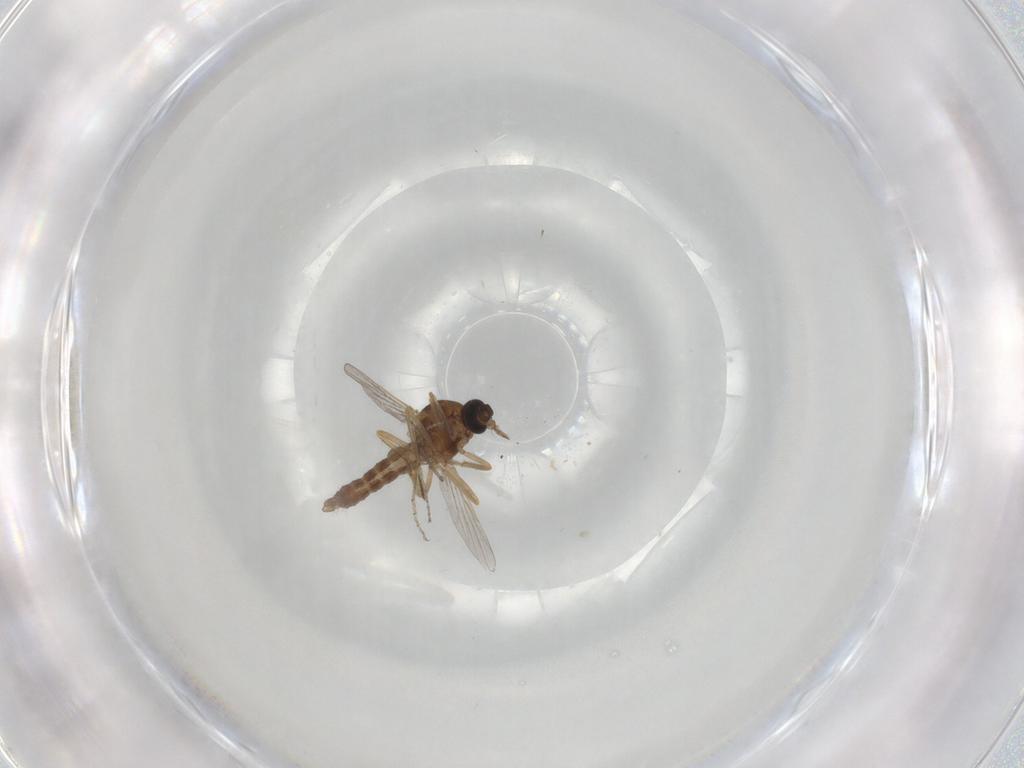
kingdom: Animalia
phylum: Arthropoda
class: Insecta
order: Diptera
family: Ceratopogonidae
